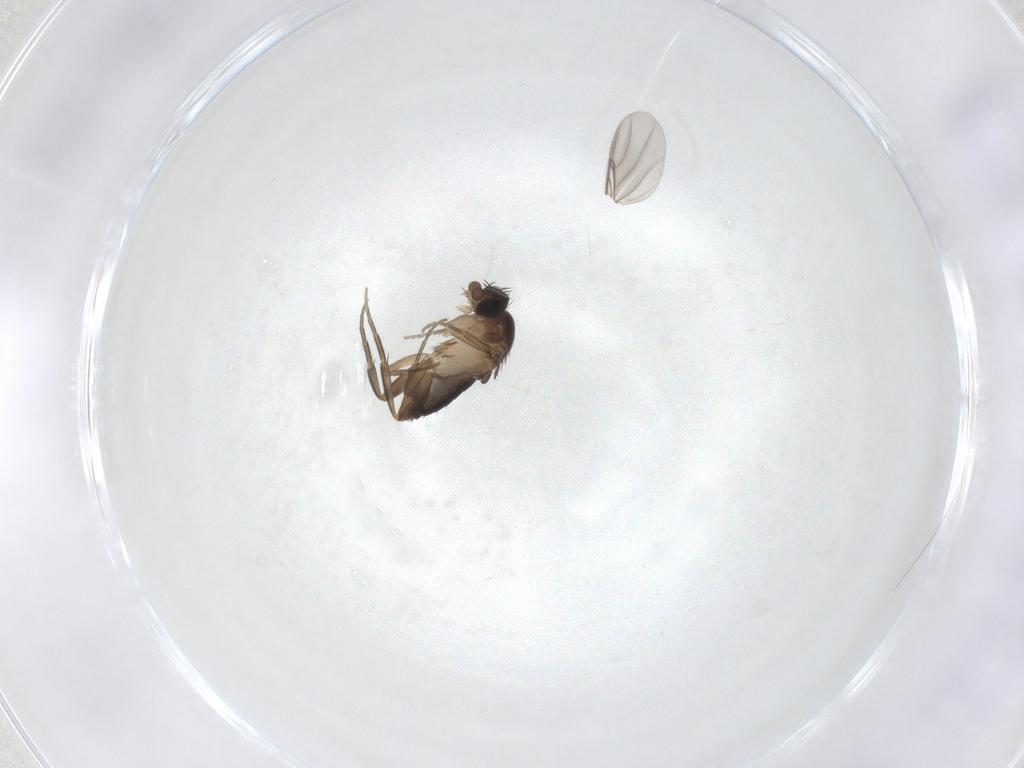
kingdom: Animalia
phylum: Arthropoda
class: Insecta
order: Diptera
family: Phoridae
